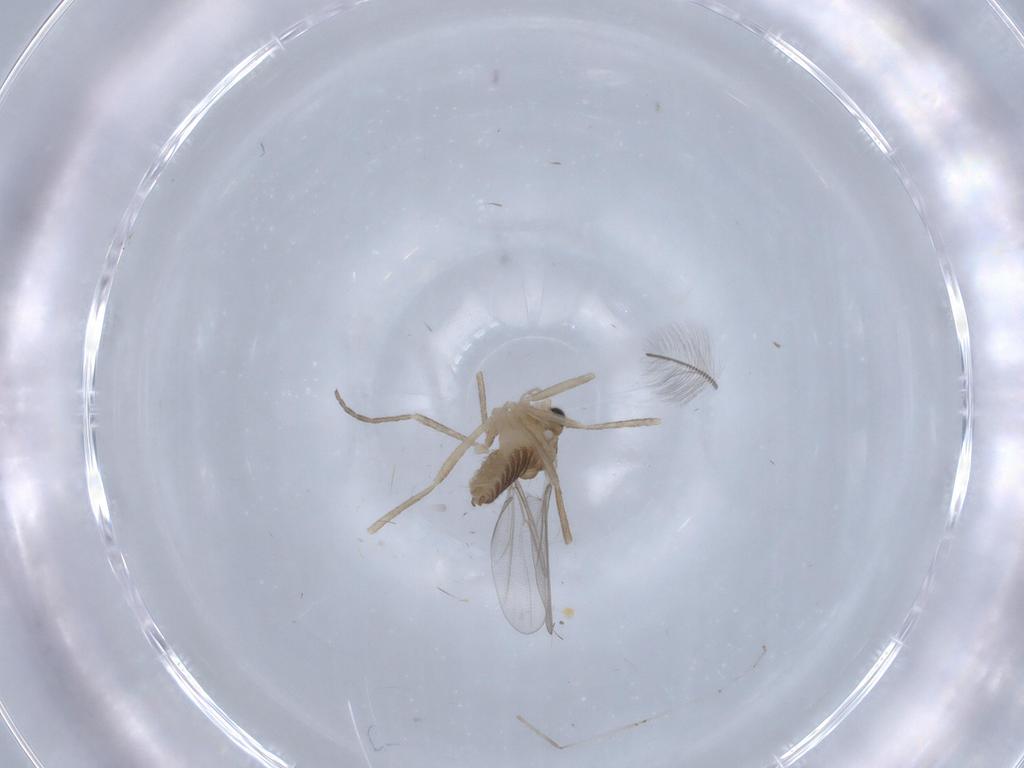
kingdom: Animalia
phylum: Arthropoda
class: Insecta
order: Diptera
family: Cecidomyiidae
